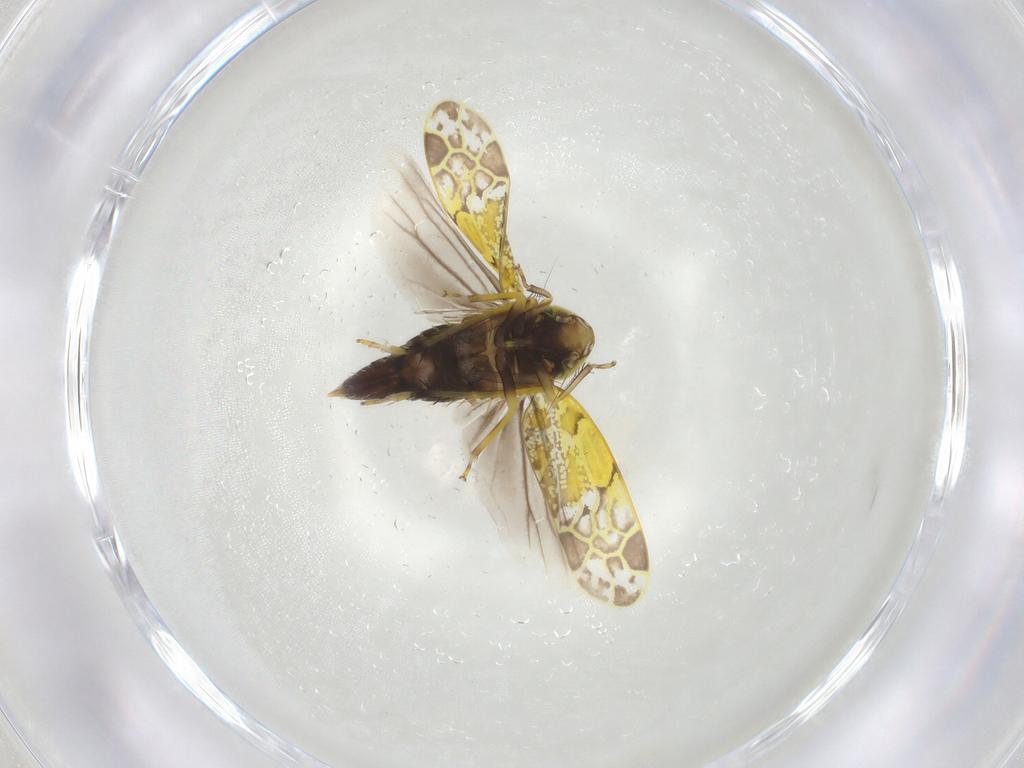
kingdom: Animalia
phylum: Arthropoda
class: Insecta
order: Hemiptera
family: Cicadellidae
